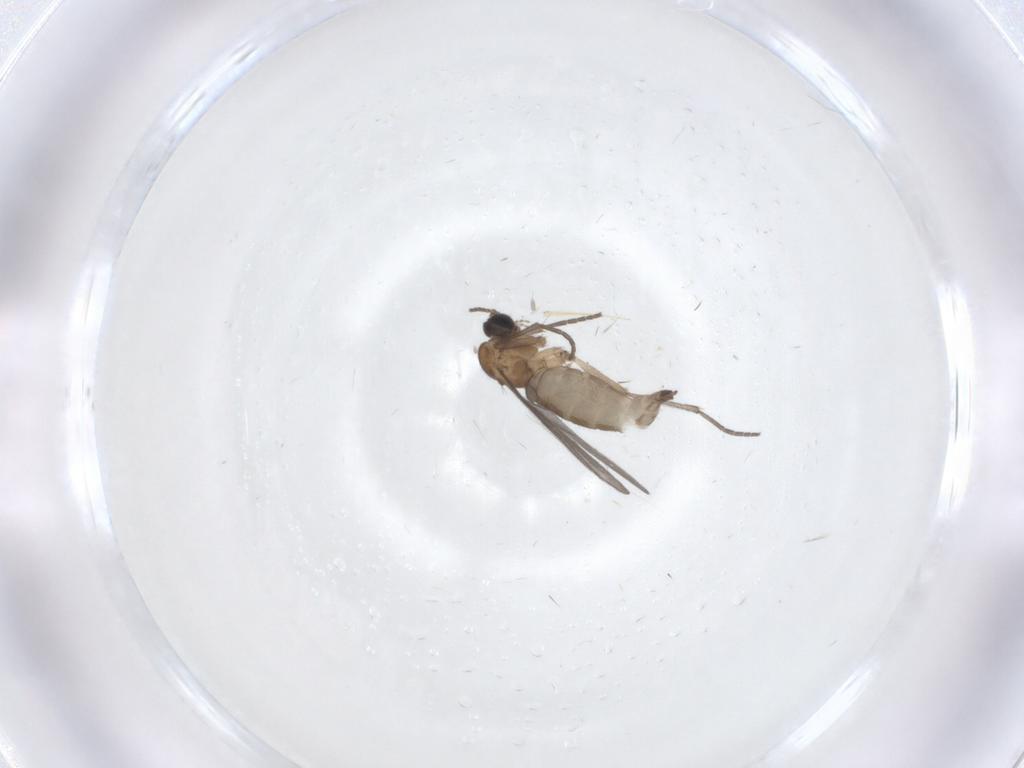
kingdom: Animalia
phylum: Arthropoda
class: Insecta
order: Diptera
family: Sciaridae
